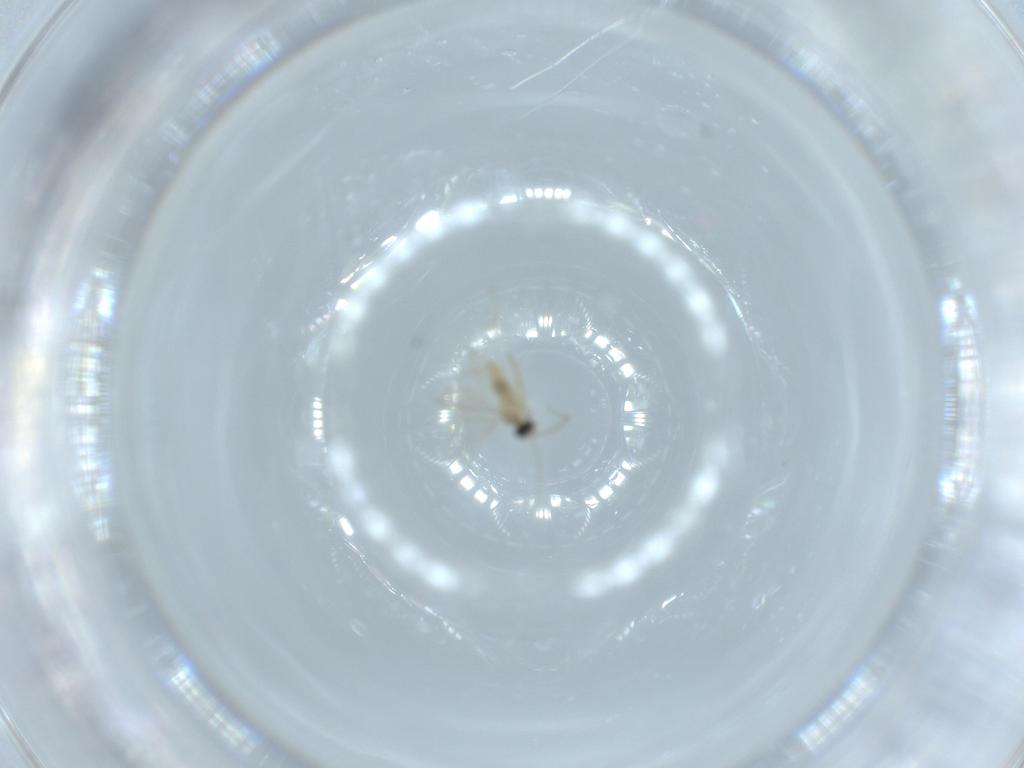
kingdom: Animalia
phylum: Arthropoda
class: Insecta
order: Diptera
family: Cecidomyiidae
